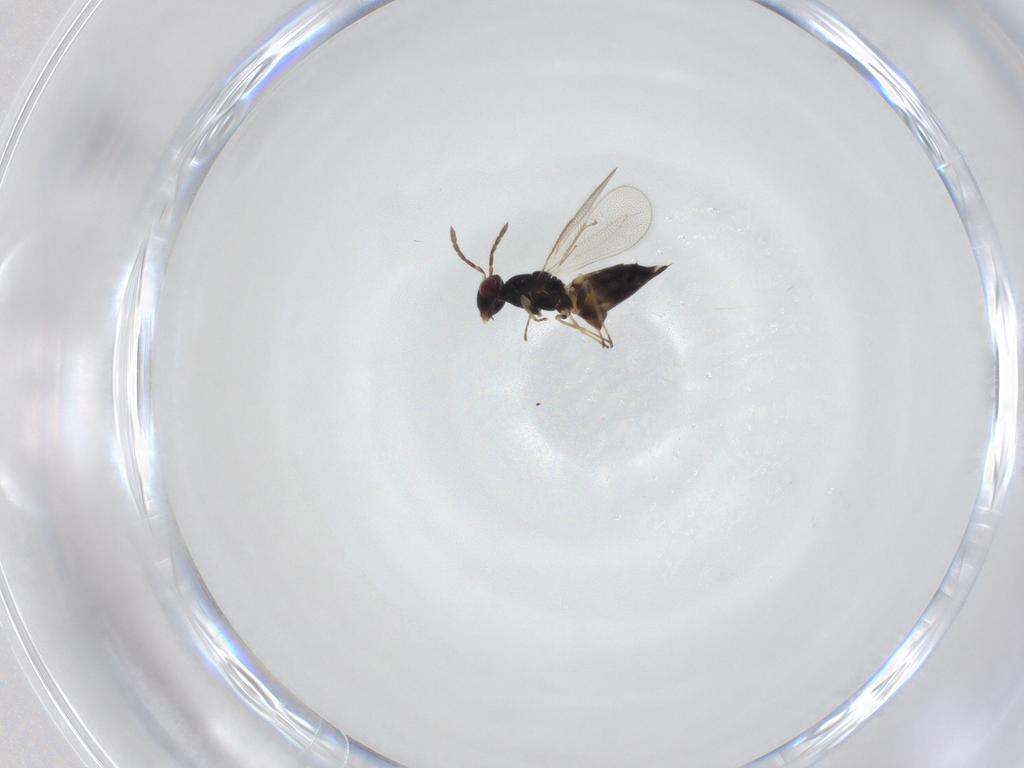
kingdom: Animalia
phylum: Arthropoda
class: Insecta
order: Hymenoptera
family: Eulophidae
